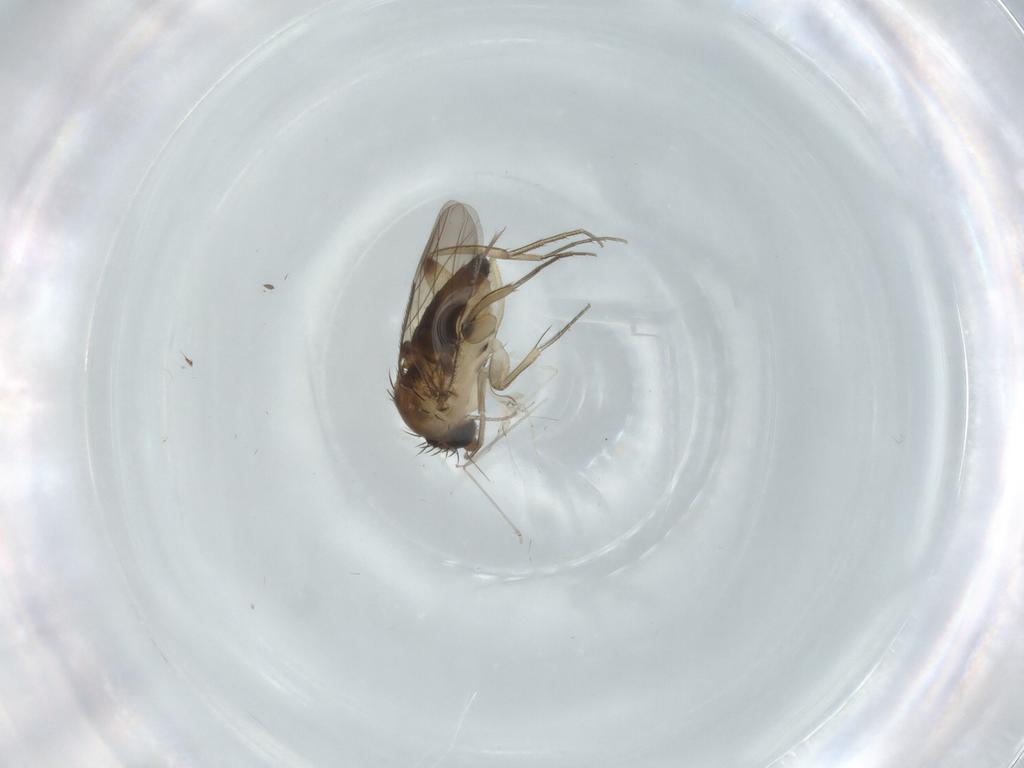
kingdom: Animalia
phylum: Arthropoda
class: Insecta
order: Diptera
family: Phoridae
